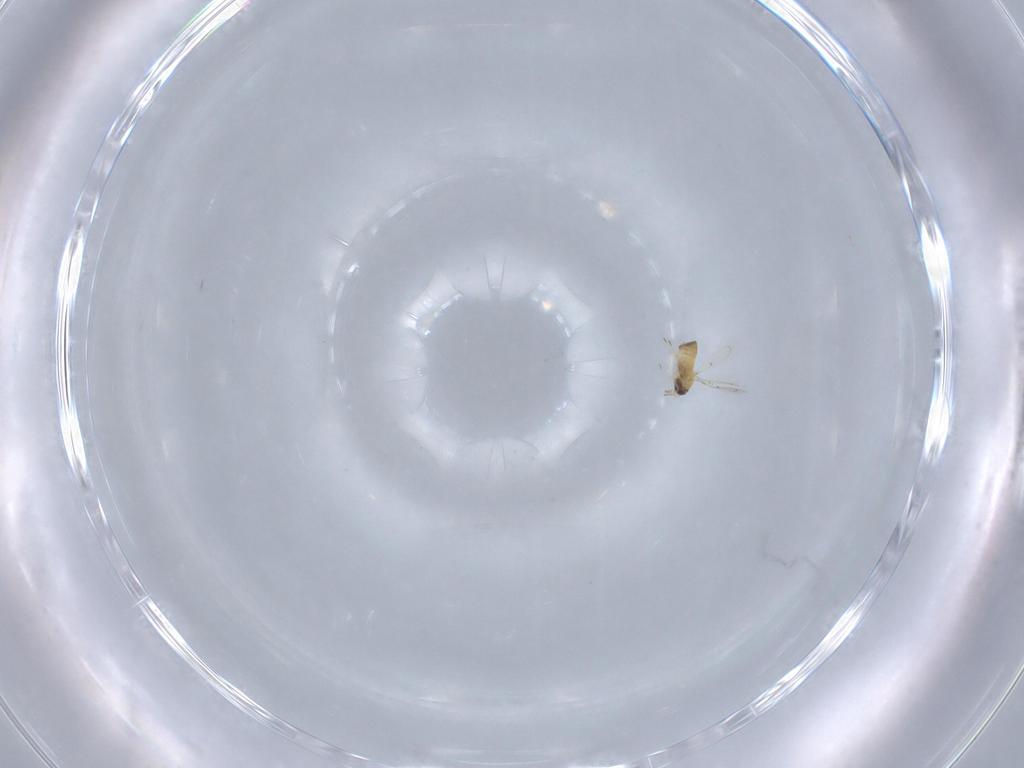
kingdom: Animalia
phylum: Arthropoda
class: Insecta
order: Hymenoptera
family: Trichogrammatidae
